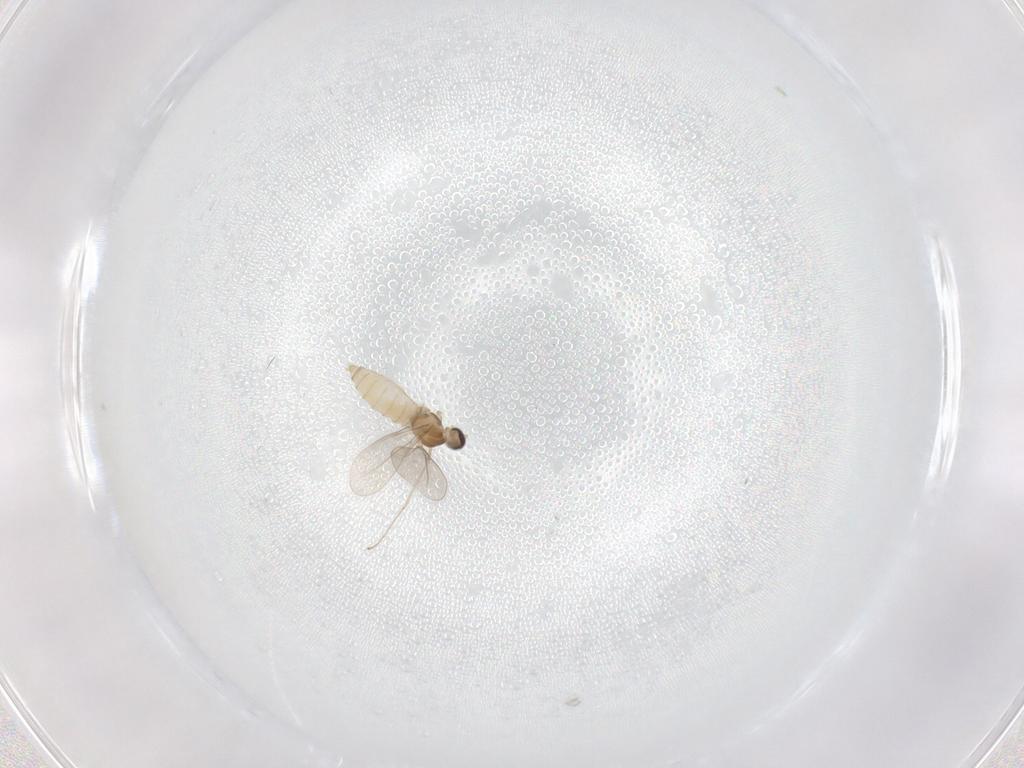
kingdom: Animalia
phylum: Arthropoda
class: Insecta
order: Diptera
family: Cecidomyiidae
